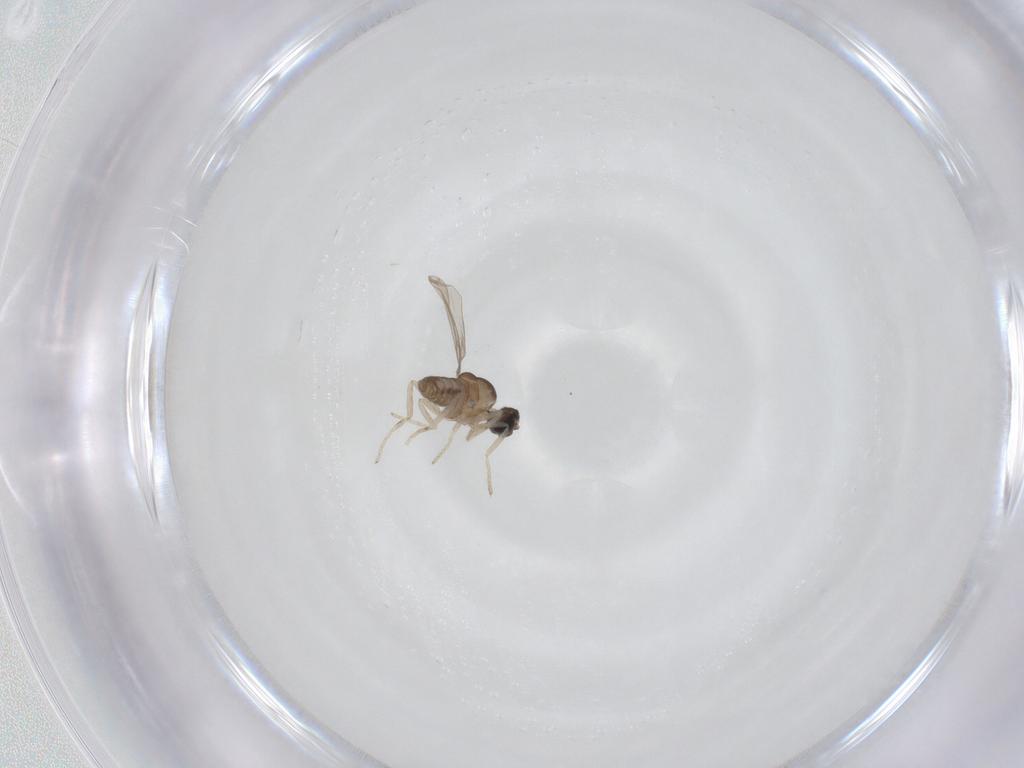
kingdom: Animalia
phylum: Arthropoda
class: Insecta
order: Diptera
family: Cecidomyiidae
